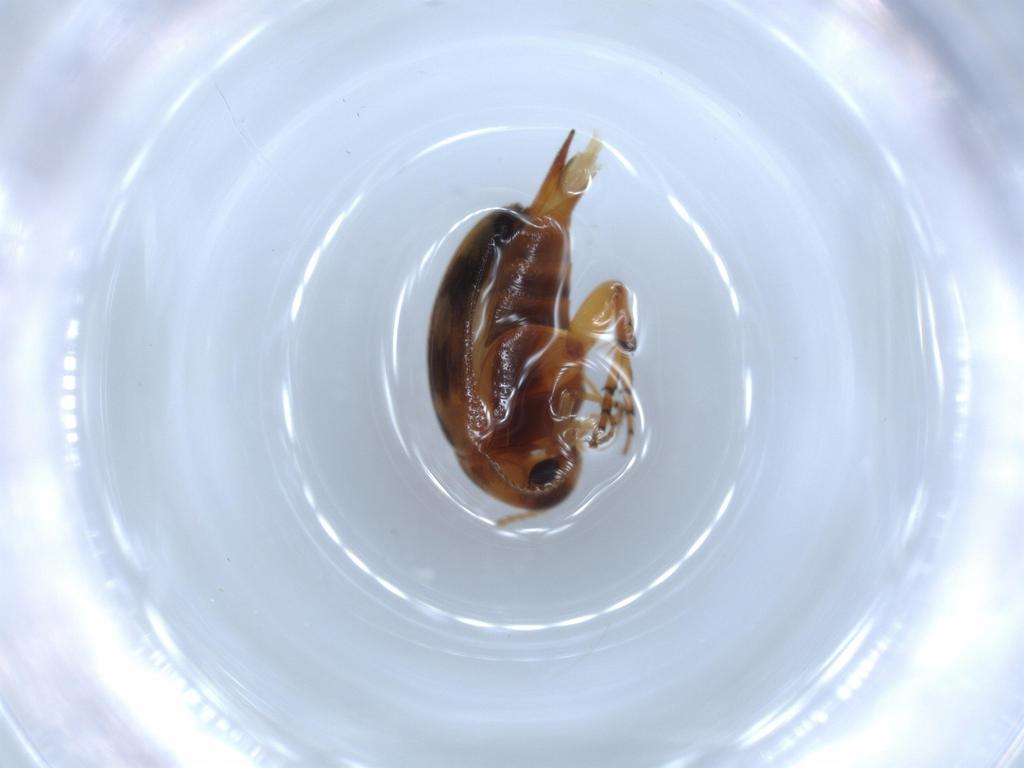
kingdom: Animalia
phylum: Arthropoda
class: Insecta
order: Coleoptera
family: Mordellidae
